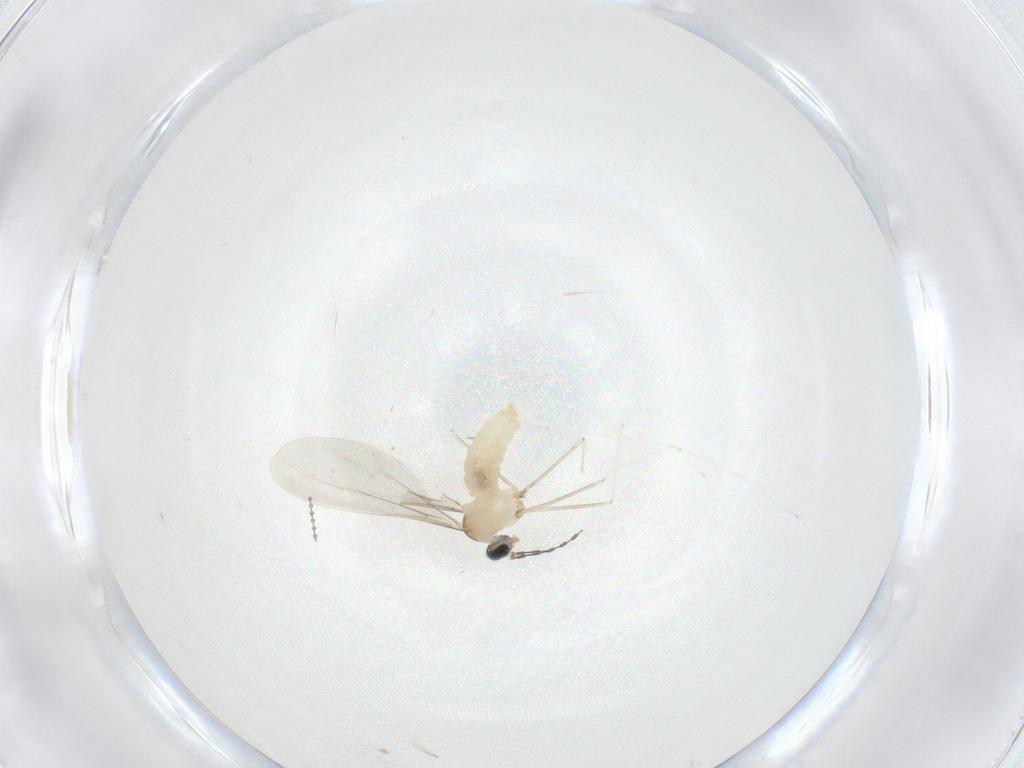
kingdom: Animalia
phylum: Arthropoda
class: Insecta
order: Diptera
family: Cecidomyiidae
